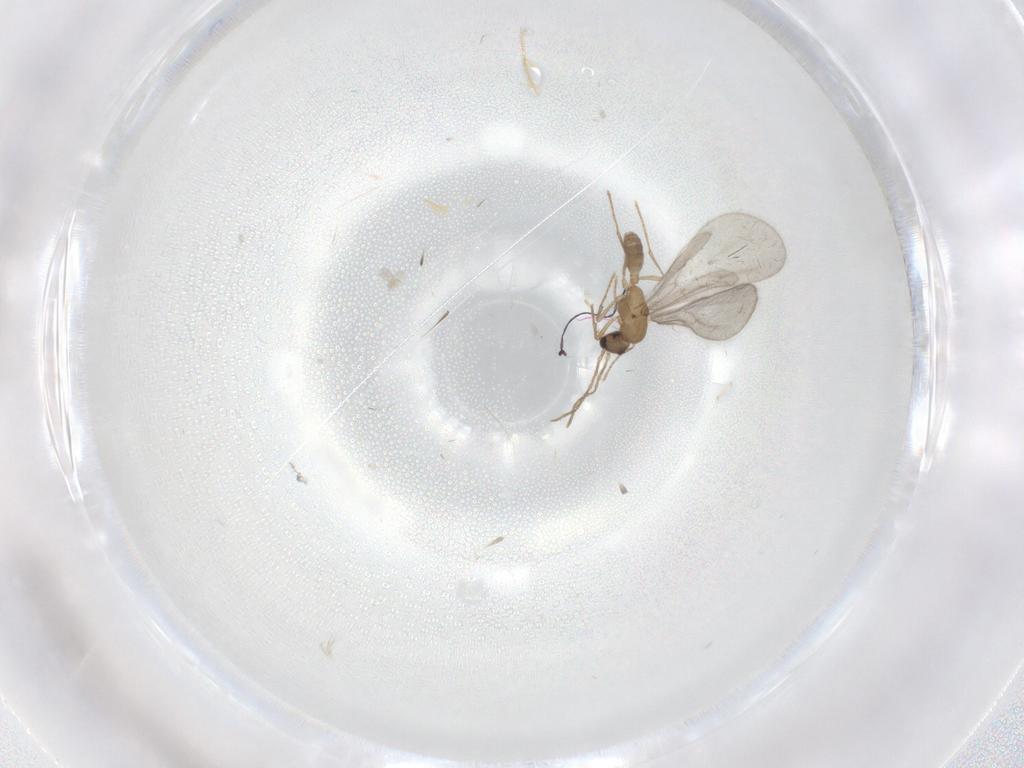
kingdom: Animalia
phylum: Arthropoda
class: Insecta
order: Hymenoptera
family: Formicidae
